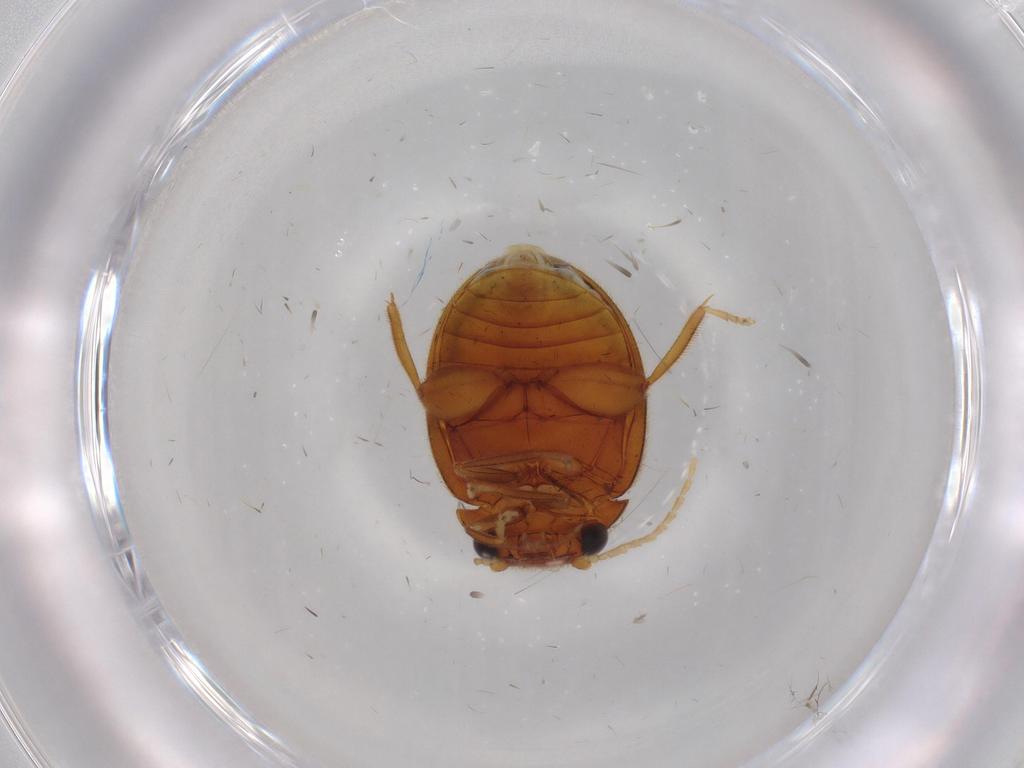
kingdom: Animalia
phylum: Arthropoda
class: Insecta
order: Coleoptera
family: Scirtidae
